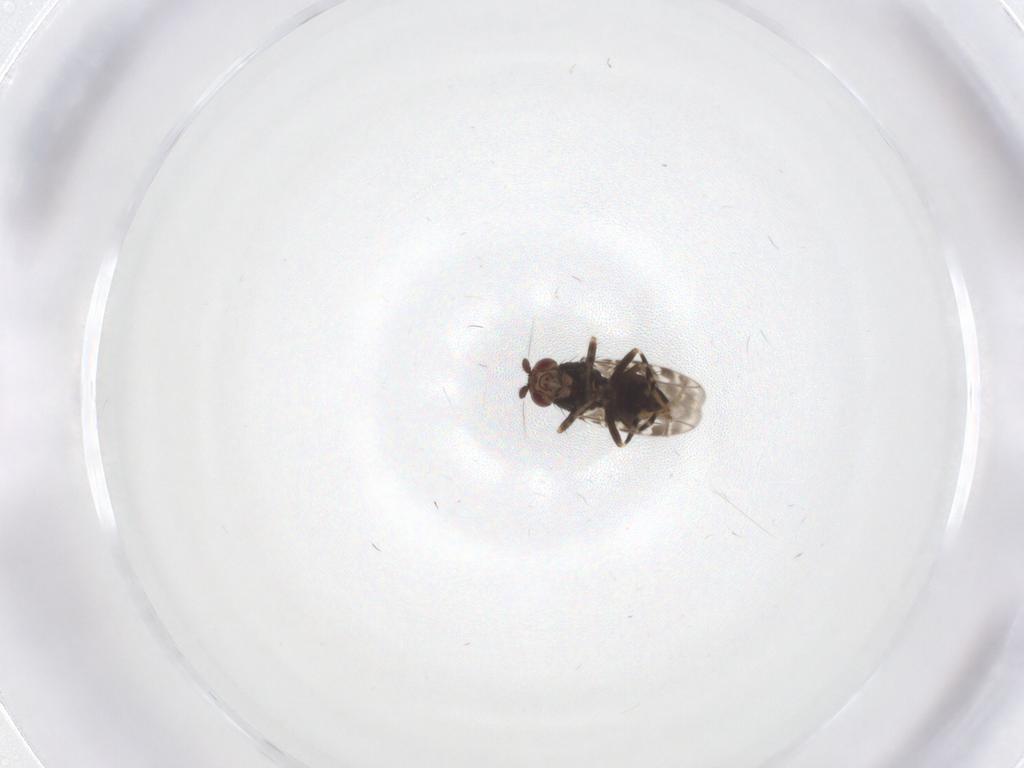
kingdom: Animalia
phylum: Arthropoda
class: Insecta
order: Diptera
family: Sphaeroceridae
